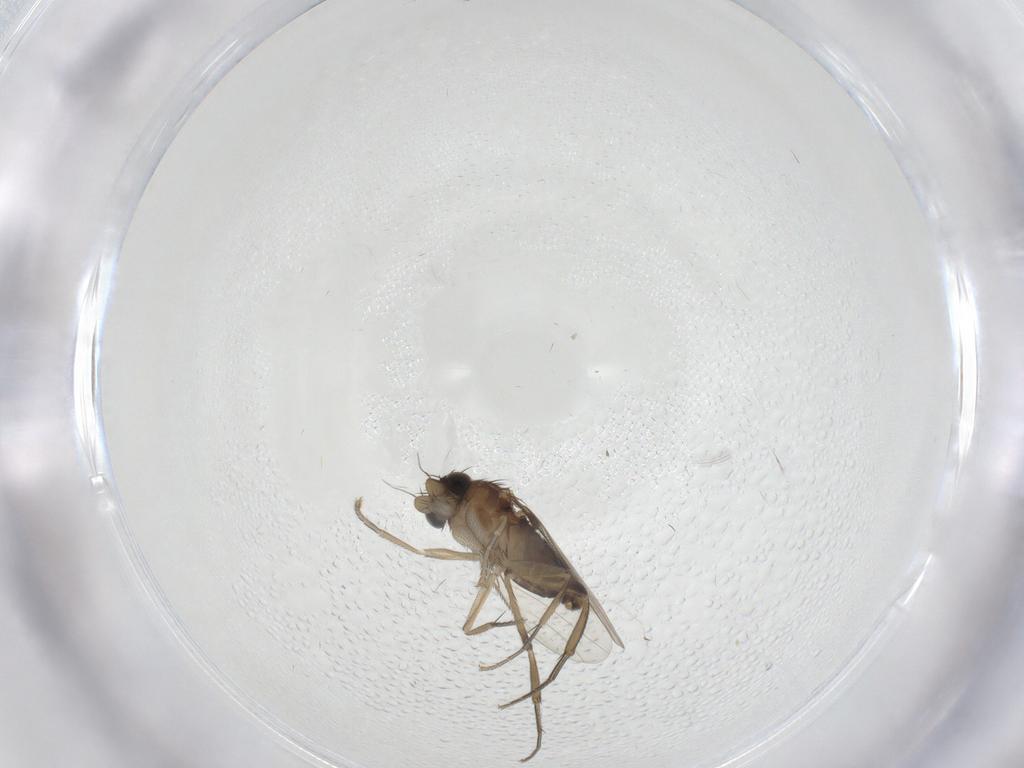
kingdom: Animalia
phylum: Arthropoda
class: Insecta
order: Diptera
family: Phoridae
